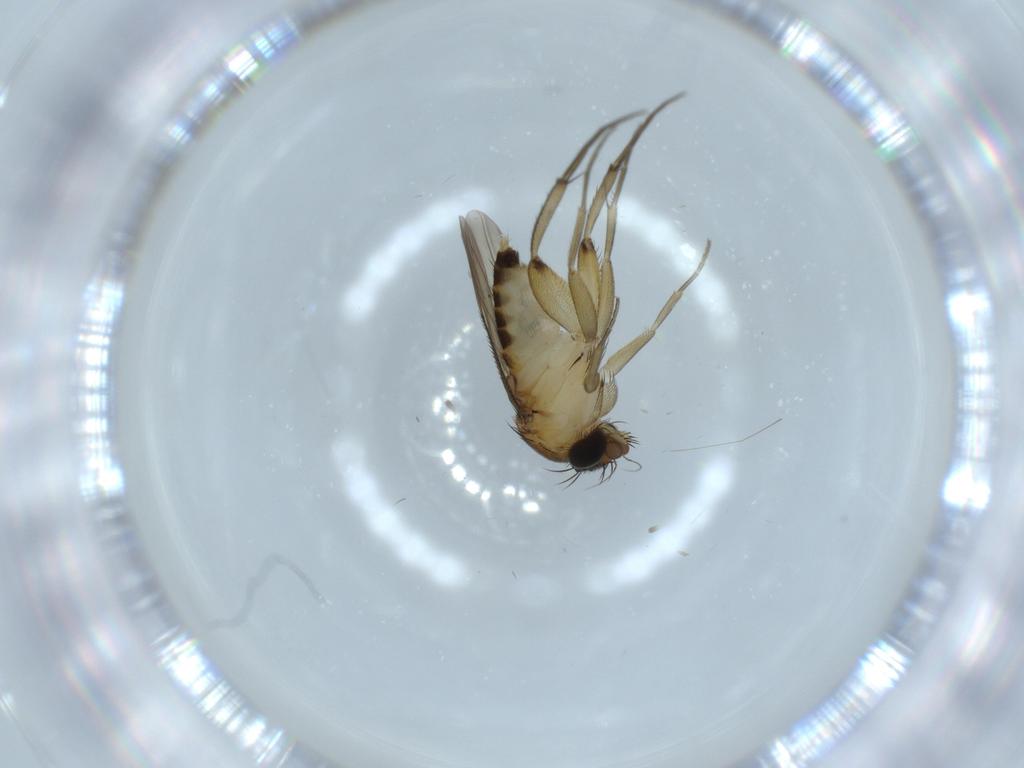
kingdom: Animalia
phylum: Arthropoda
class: Insecta
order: Diptera
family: Phoridae
